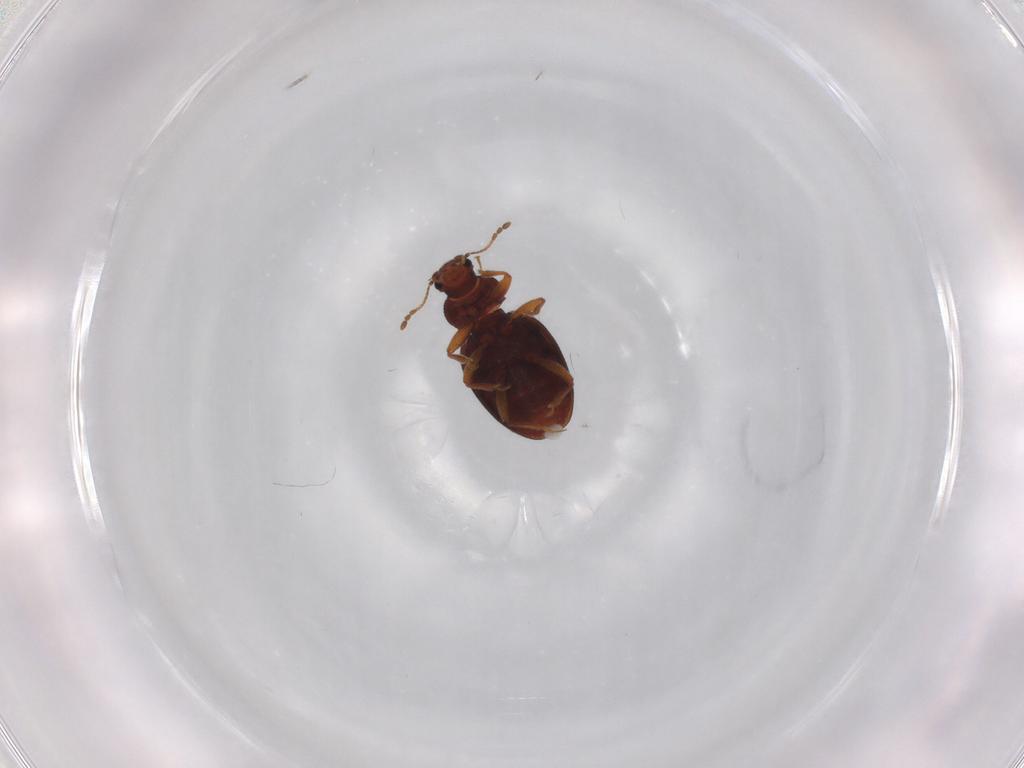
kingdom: Animalia
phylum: Arthropoda
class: Insecta
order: Coleoptera
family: Latridiidae
